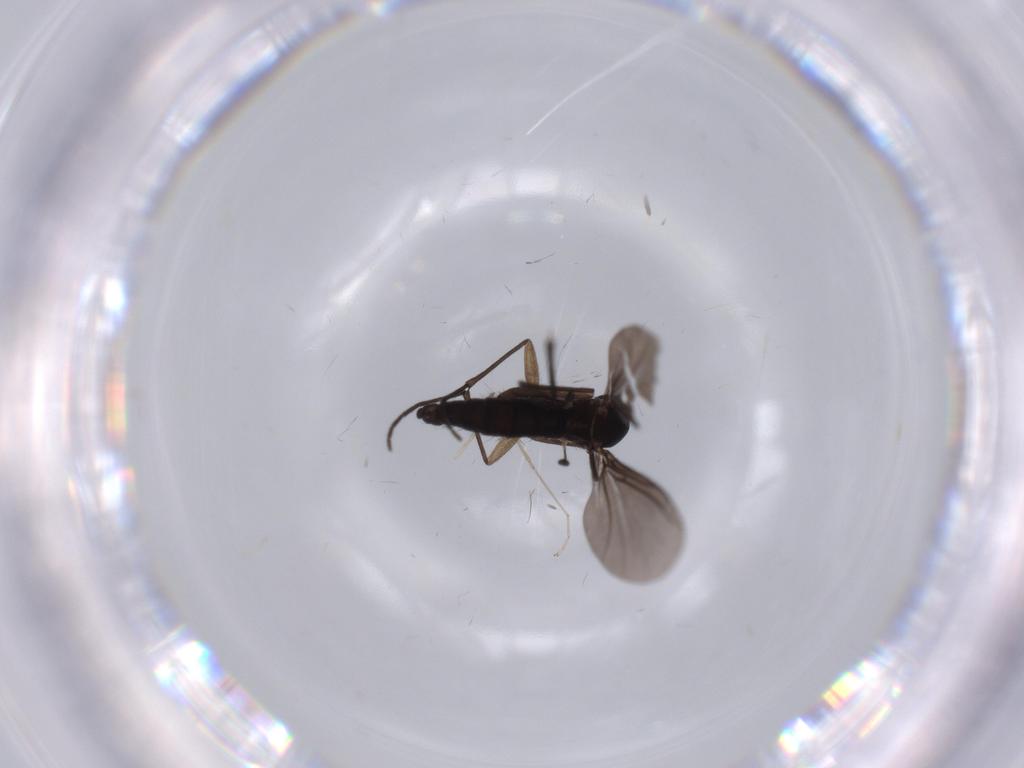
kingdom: Animalia
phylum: Arthropoda
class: Insecta
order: Diptera
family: Sciaridae
